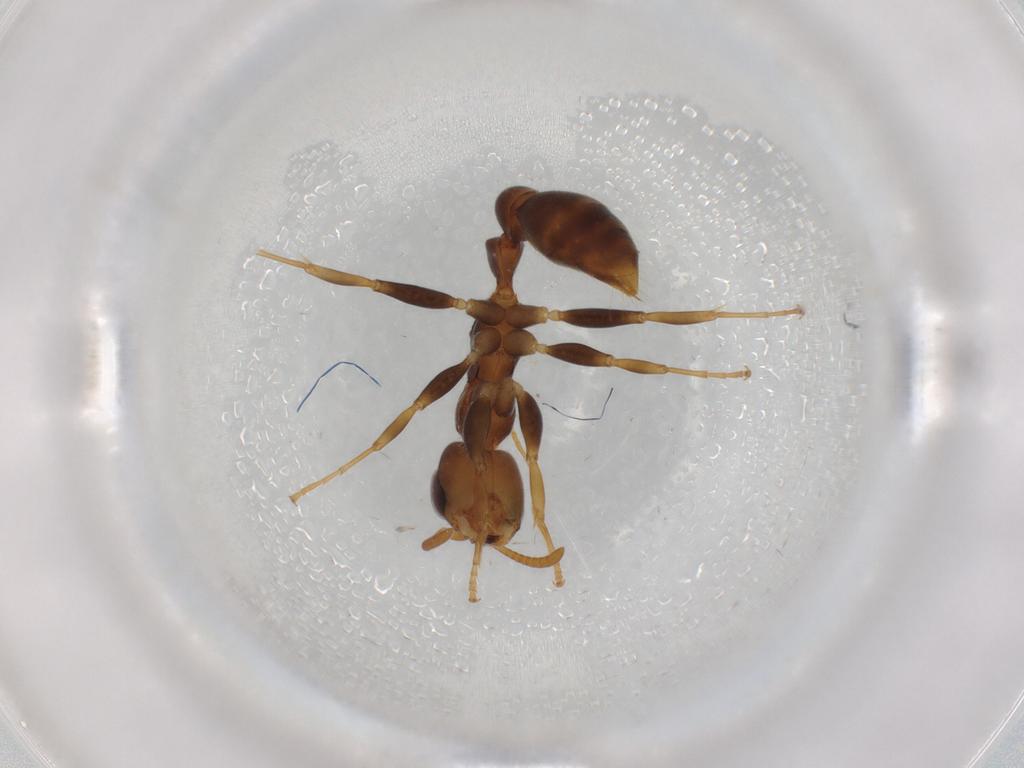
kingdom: Animalia
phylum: Arthropoda
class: Insecta
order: Hymenoptera
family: Formicidae
